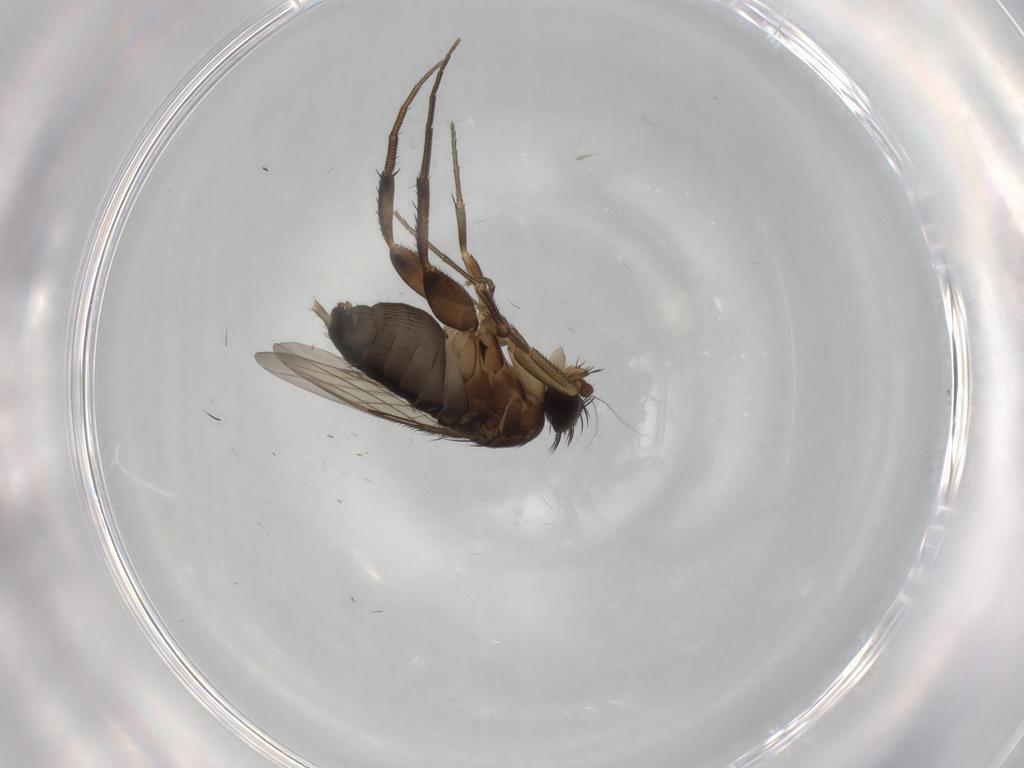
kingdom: Animalia
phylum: Arthropoda
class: Insecta
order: Diptera
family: Phoridae
